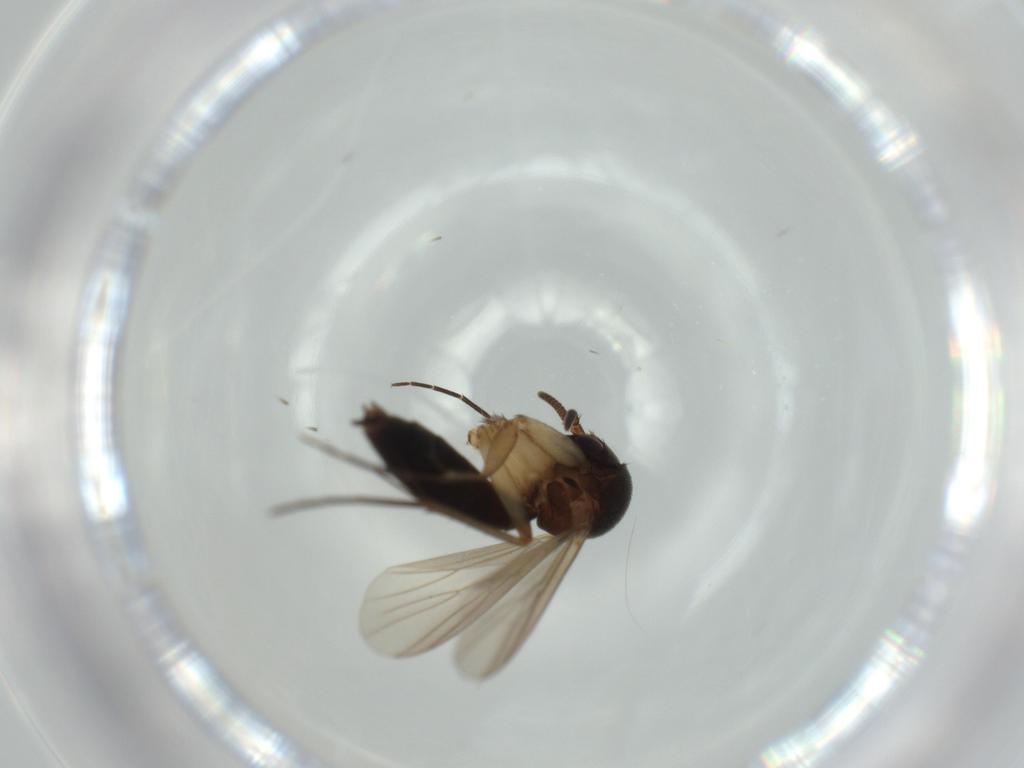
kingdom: Animalia
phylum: Arthropoda
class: Insecta
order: Diptera
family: Mycetophilidae
